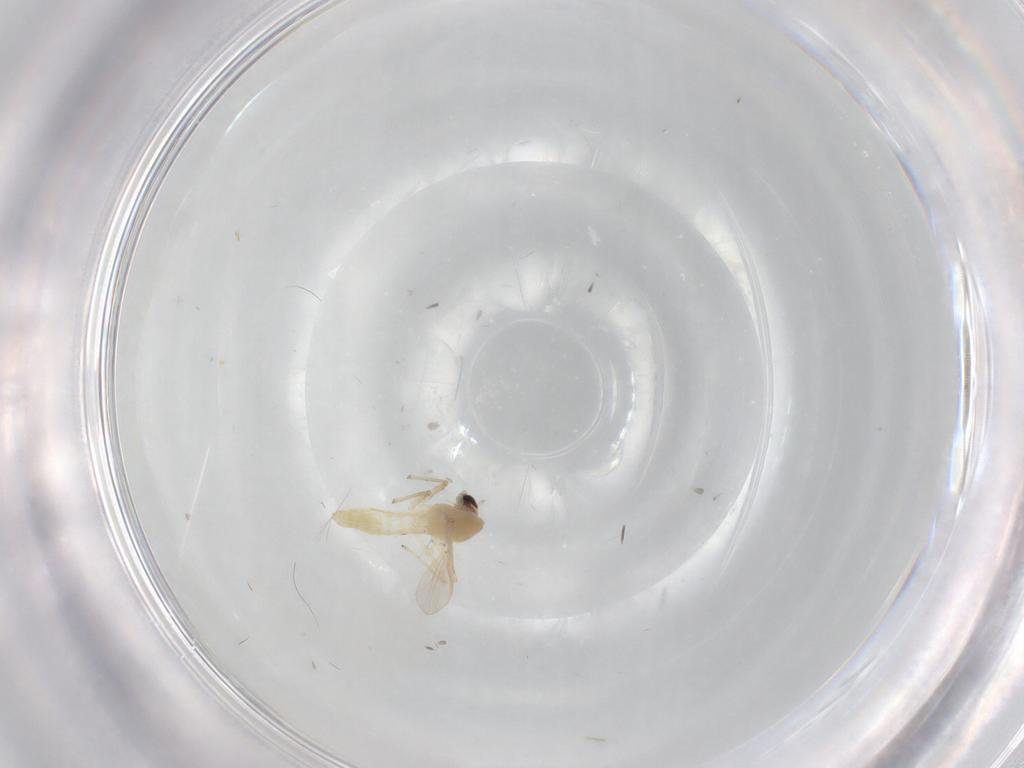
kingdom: Animalia
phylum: Arthropoda
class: Insecta
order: Diptera
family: Chironomidae
